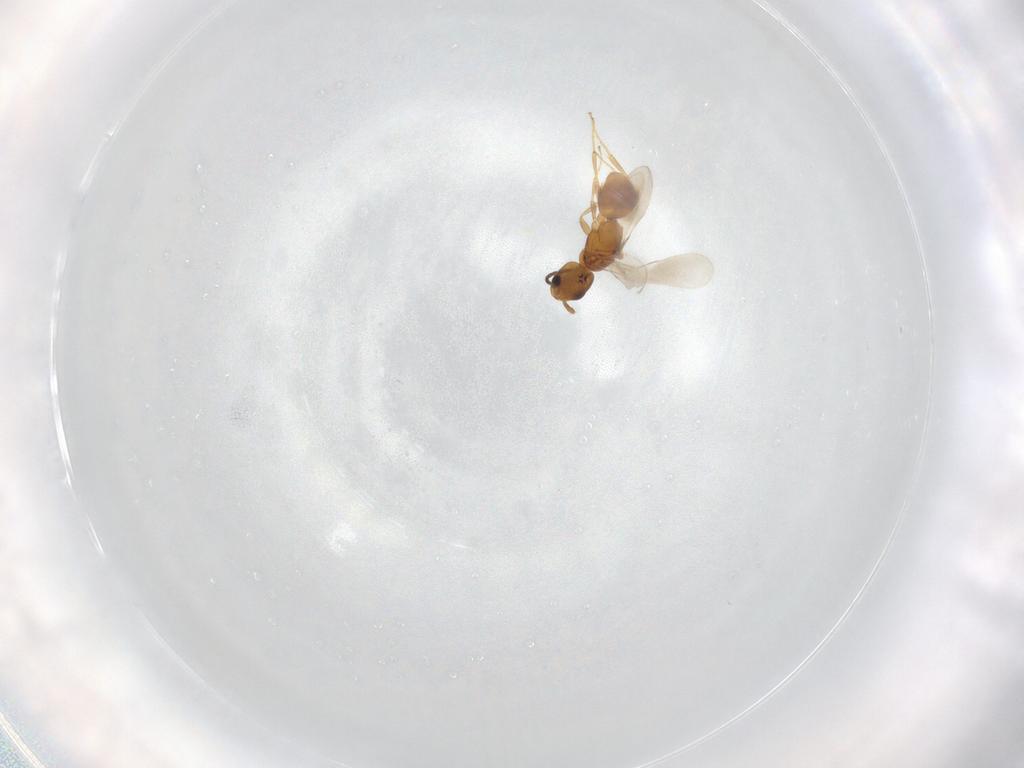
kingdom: Animalia
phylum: Arthropoda
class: Insecta
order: Hymenoptera
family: Bethylidae
